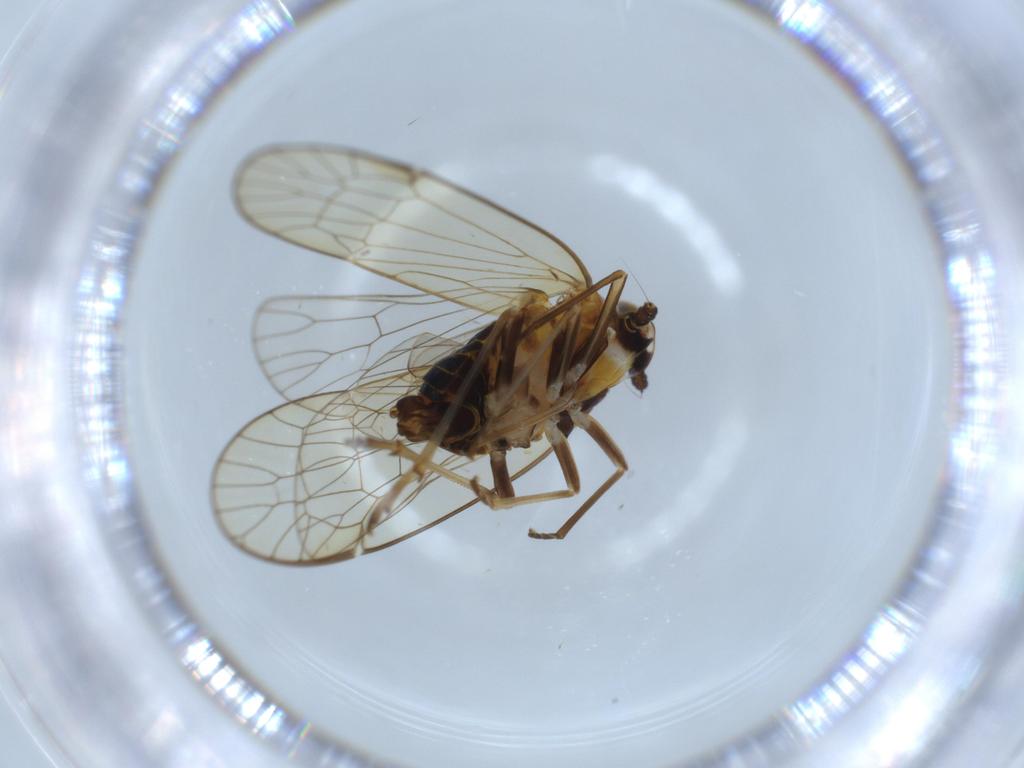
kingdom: Animalia
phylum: Arthropoda
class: Insecta
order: Hemiptera
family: Kinnaridae
